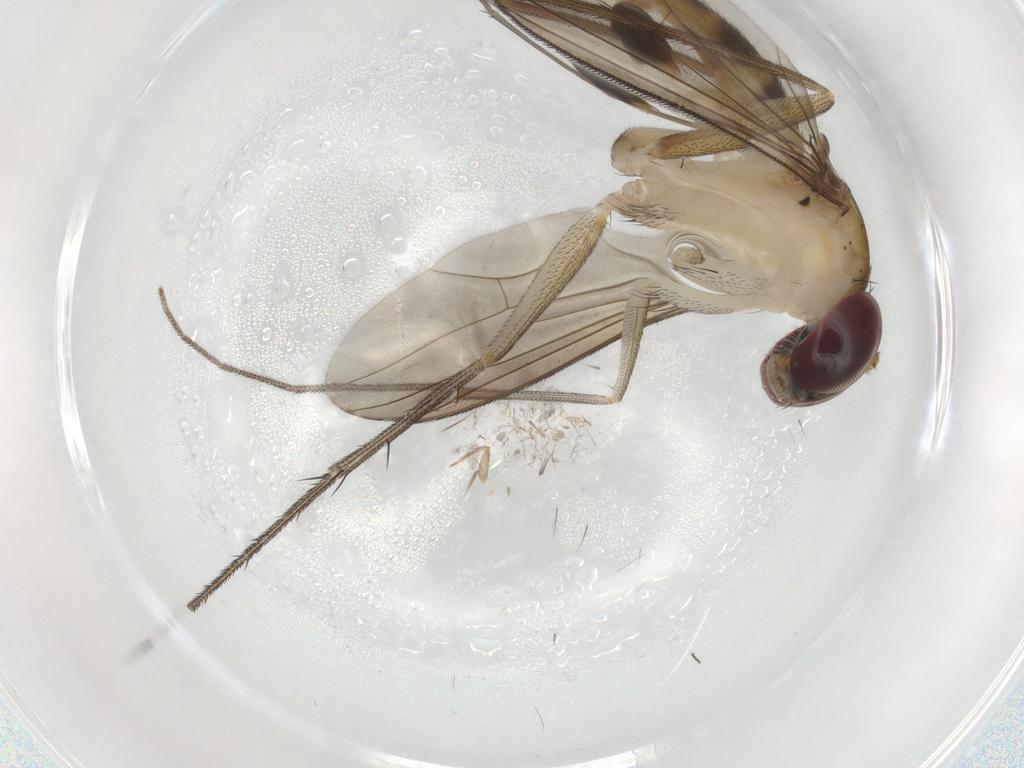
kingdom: Animalia
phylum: Arthropoda
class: Insecta
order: Diptera
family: Dolichopodidae
